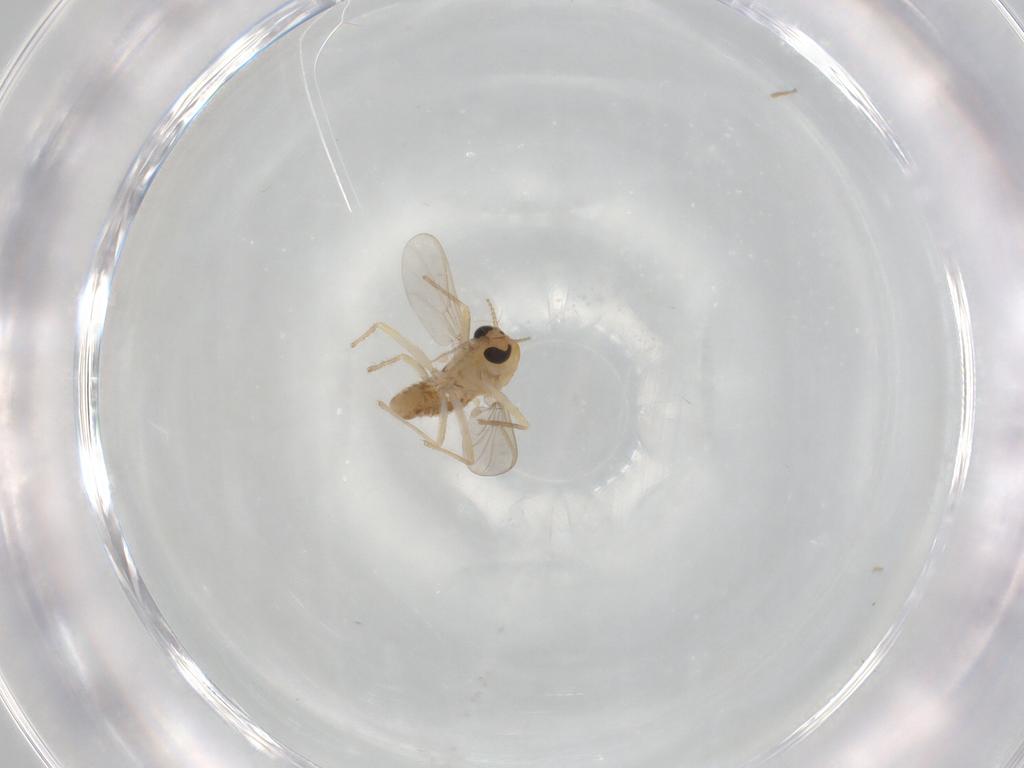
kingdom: Animalia
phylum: Arthropoda
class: Insecta
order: Diptera
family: Chironomidae
